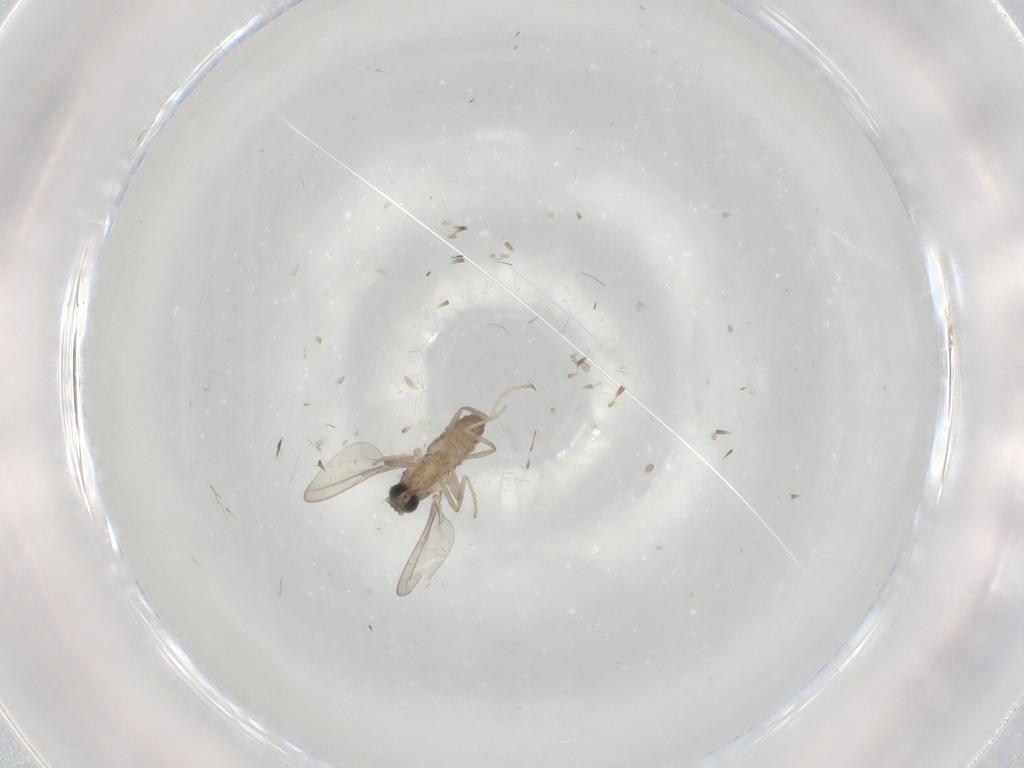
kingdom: Animalia
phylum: Arthropoda
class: Insecta
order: Diptera
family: Cecidomyiidae
